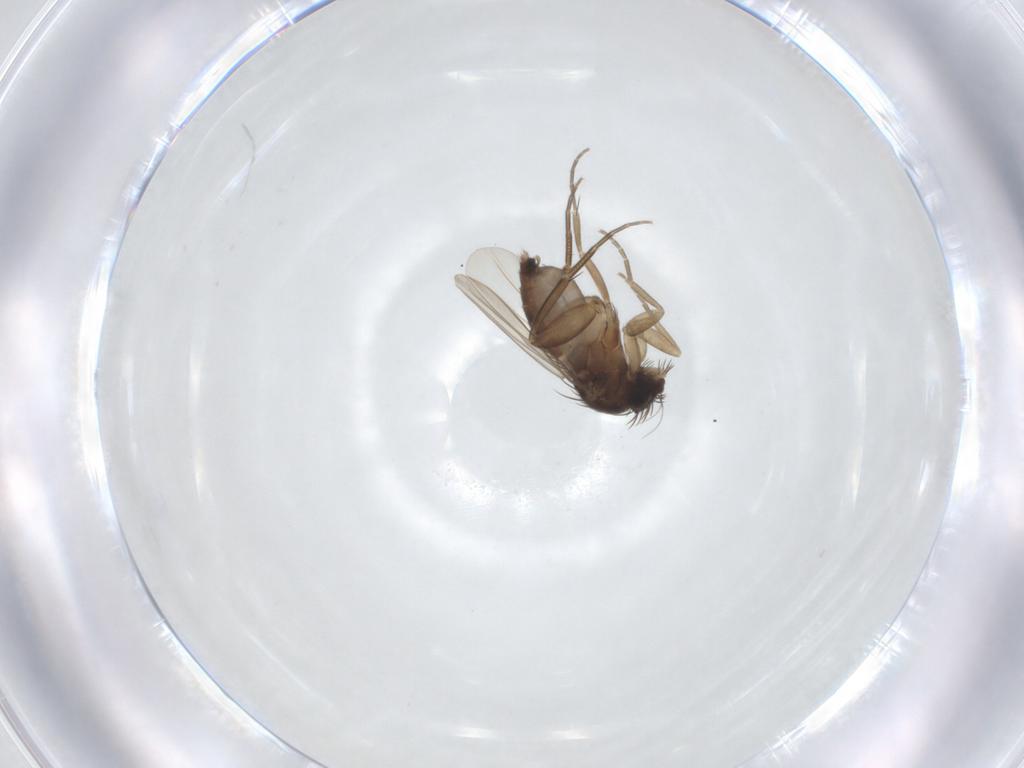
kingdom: Animalia
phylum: Arthropoda
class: Insecta
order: Diptera
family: Phoridae
